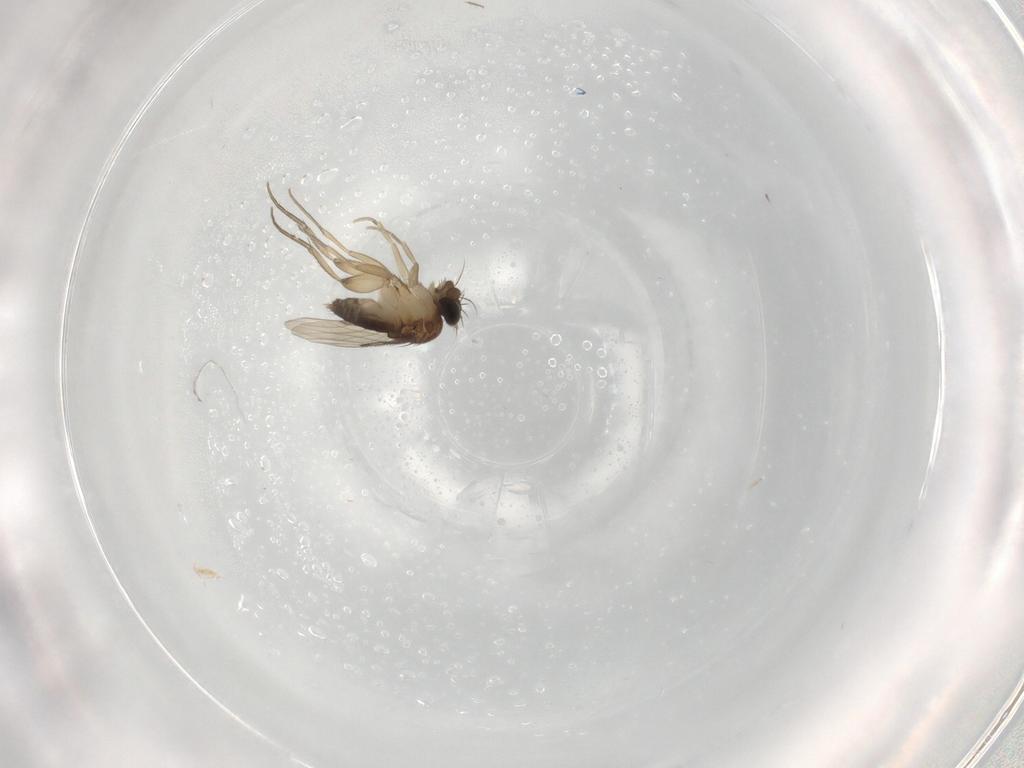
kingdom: Animalia
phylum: Arthropoda
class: Insecta
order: Diptera
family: Phoridae
